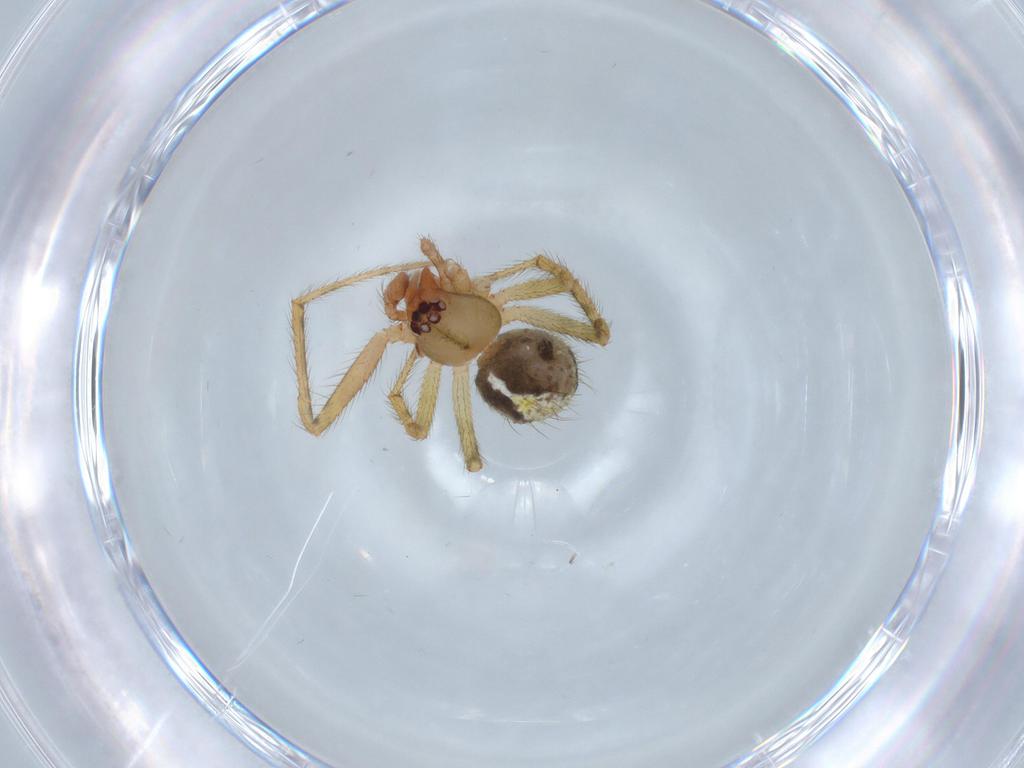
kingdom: Animalia
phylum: Arthropoda
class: Arachnida
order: Araneae
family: Theridiidae
